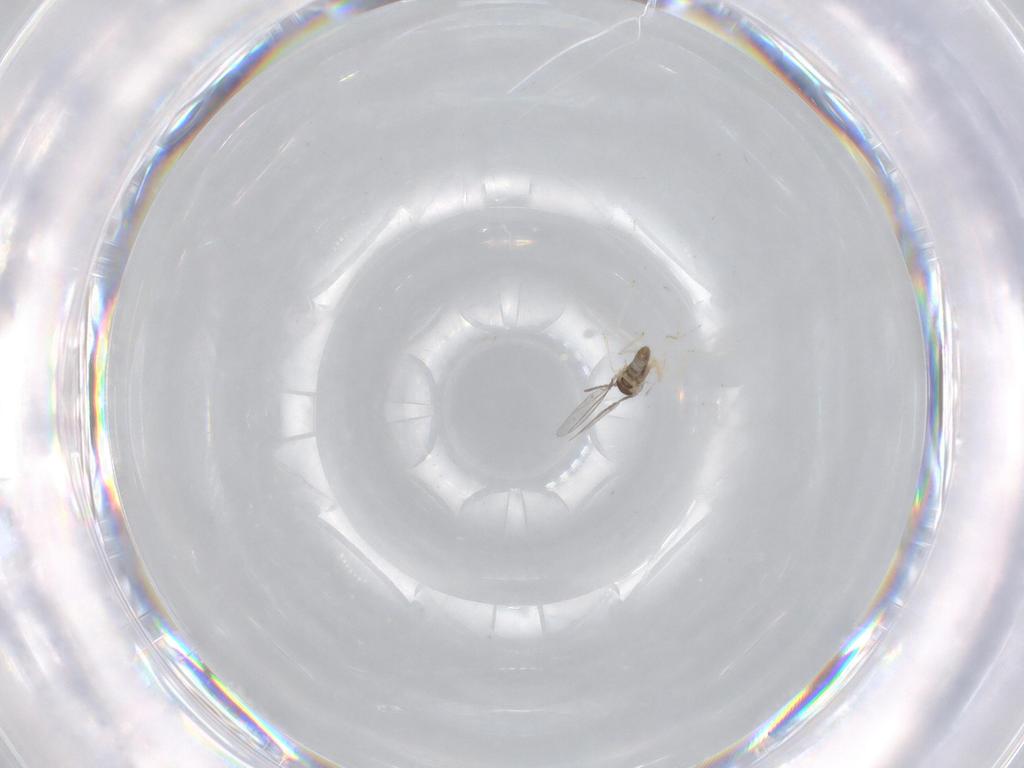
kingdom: Animalia
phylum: Arthropoda
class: Insecta
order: Diptera
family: Cecidomyiidae
